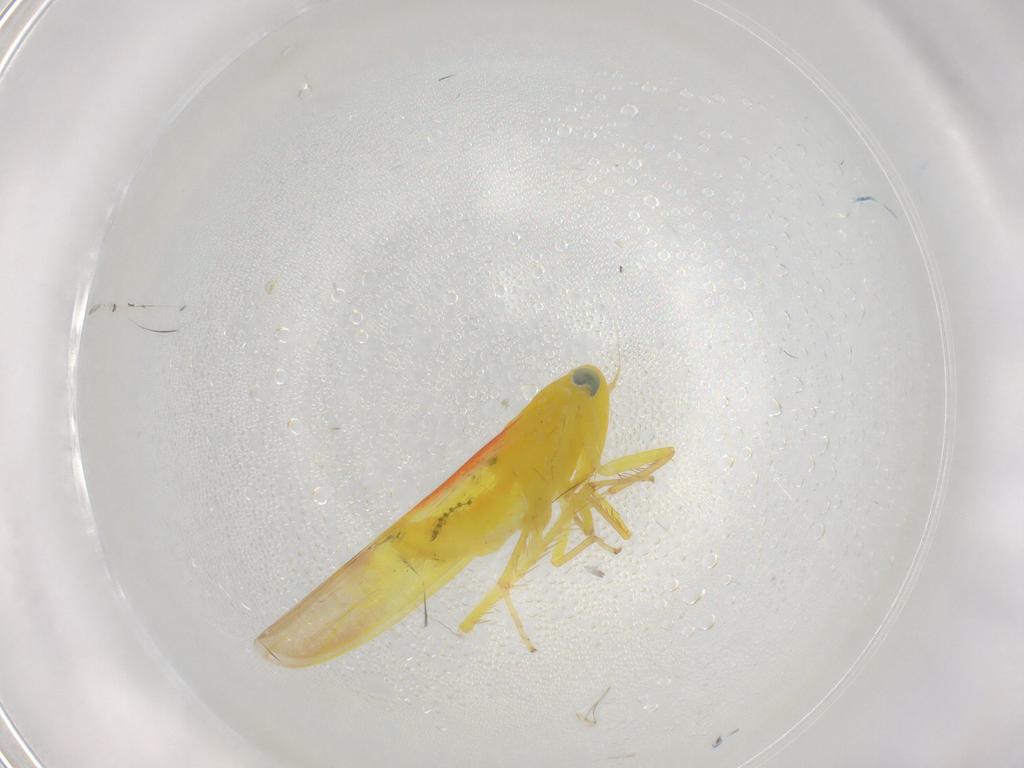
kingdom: Animalia
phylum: Arthropoda
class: Insecta
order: Hemiptera
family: Cicadellidae
